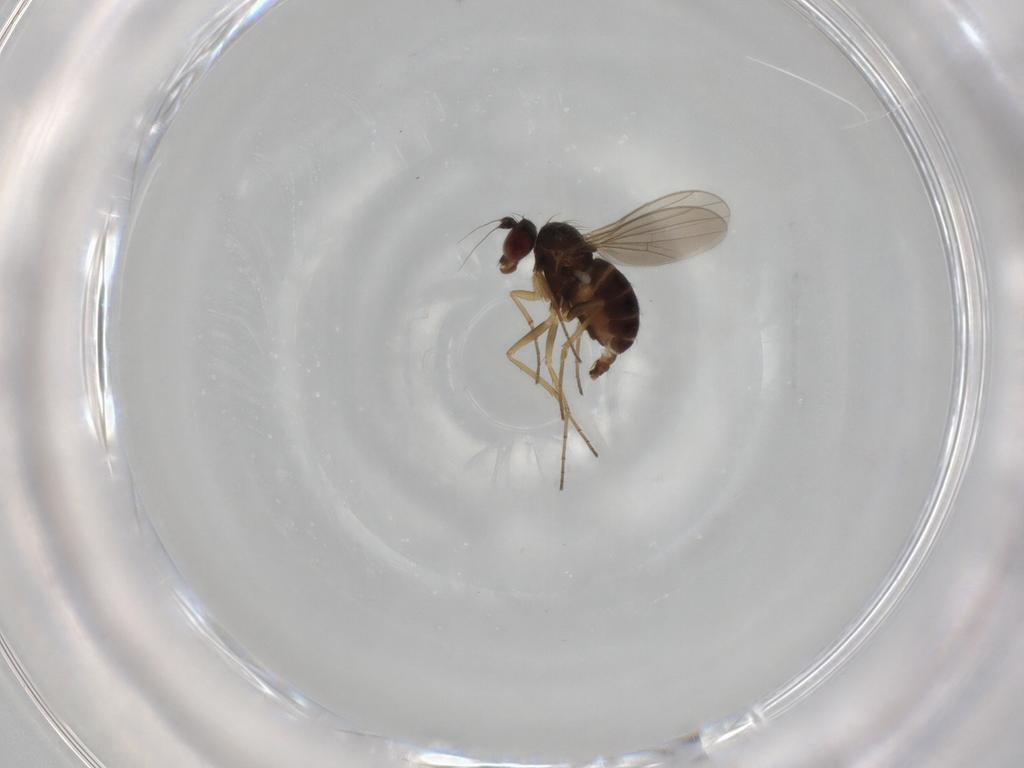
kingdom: Animalia
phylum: Arthropoda
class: Insecta
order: Diptera
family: Dolichopodidae
